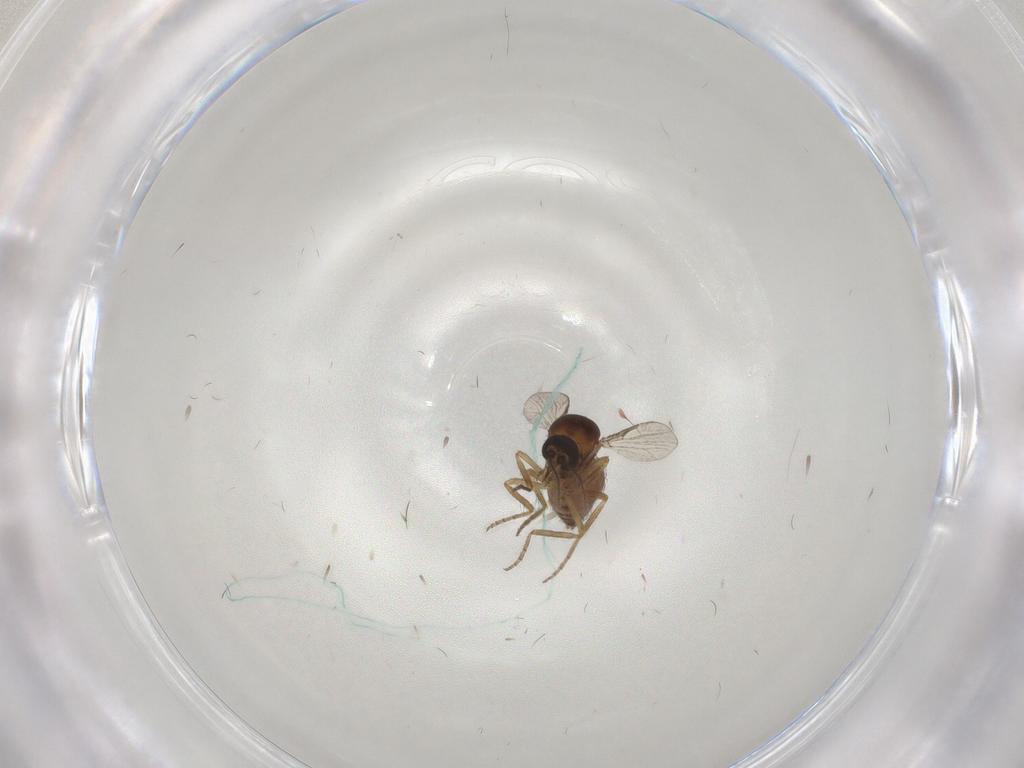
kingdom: Animalia
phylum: Arthropoda
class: Insecta
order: Diptera
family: Ceratopogonidae
